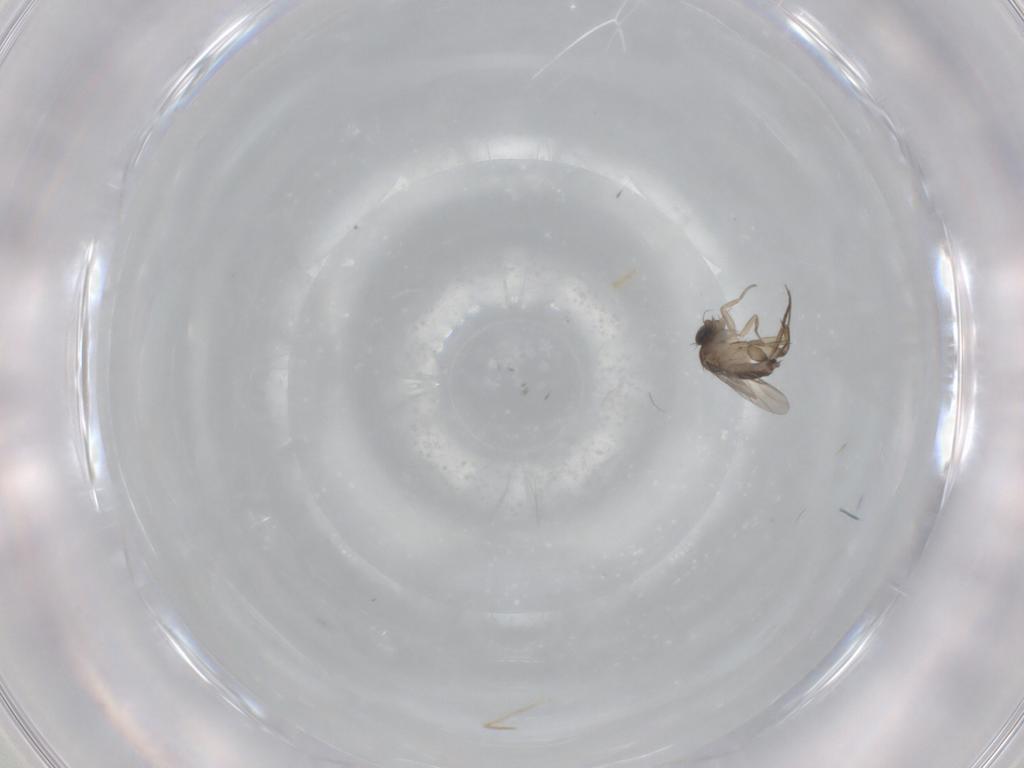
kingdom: Animalia
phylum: Arthropoda
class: Insecta
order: Diptera
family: Phoridae
